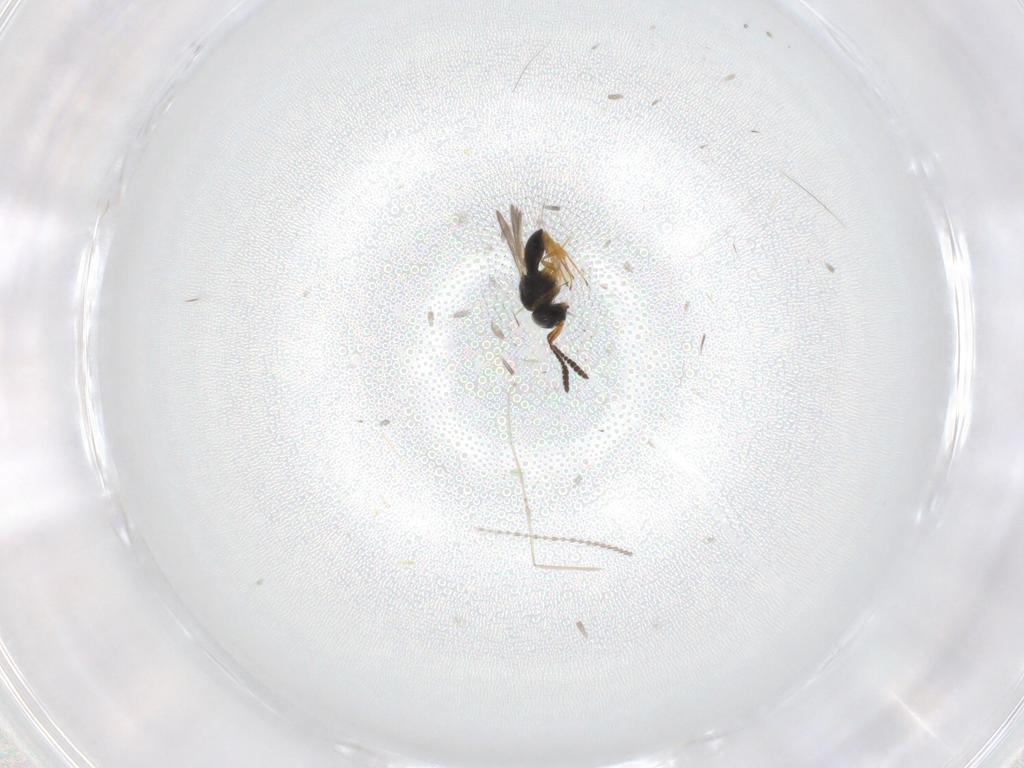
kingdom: Animalia
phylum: Arthropoda
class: Insecta
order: Hymenoptera
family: Scelionidae
